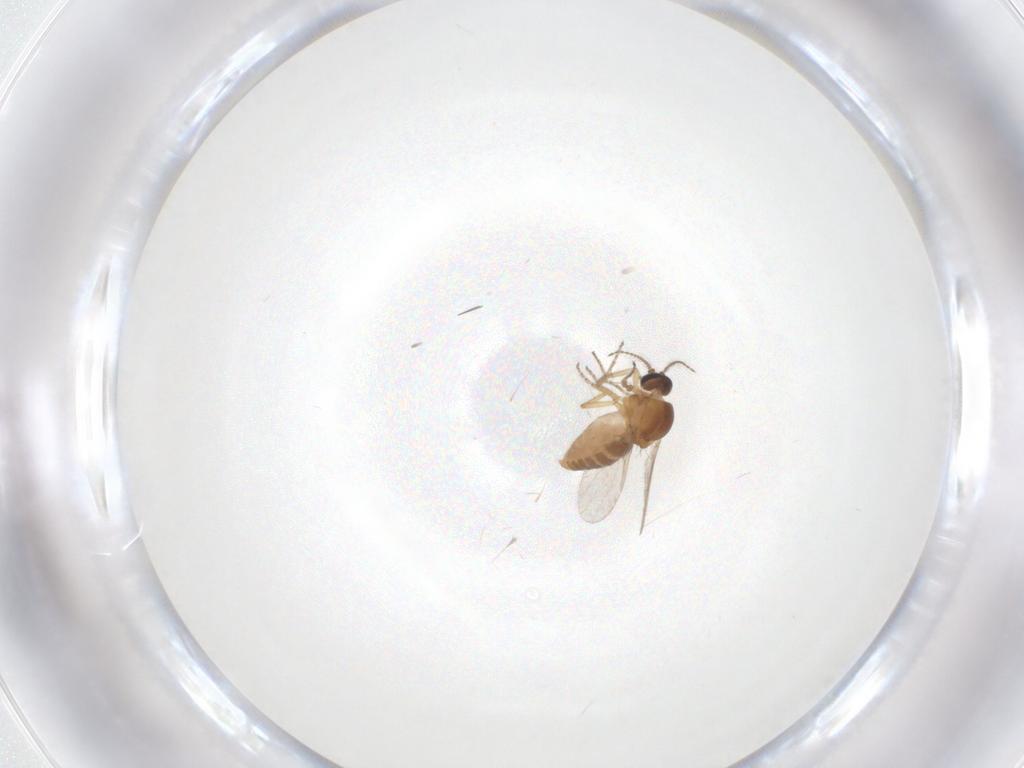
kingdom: Animalia
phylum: Arthropoda
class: Insecta
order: Diptera
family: Ceratopogonidae
